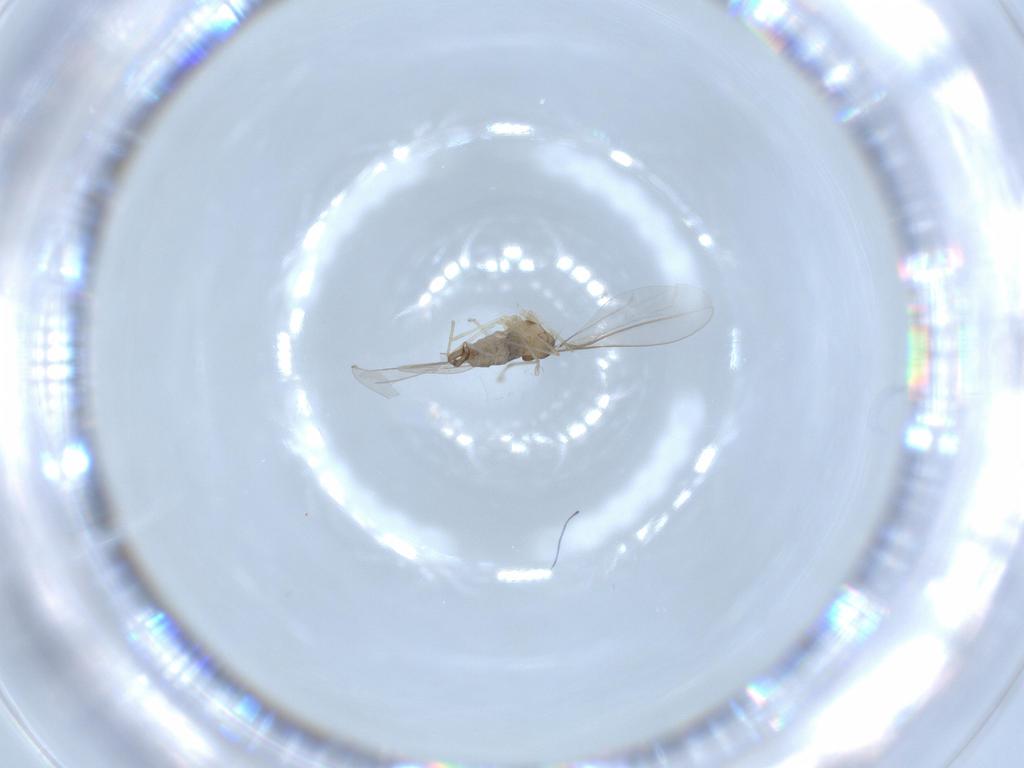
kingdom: Animalia
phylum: Arthropoda
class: Insecta
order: Diptera
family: Cecidomyiidae
